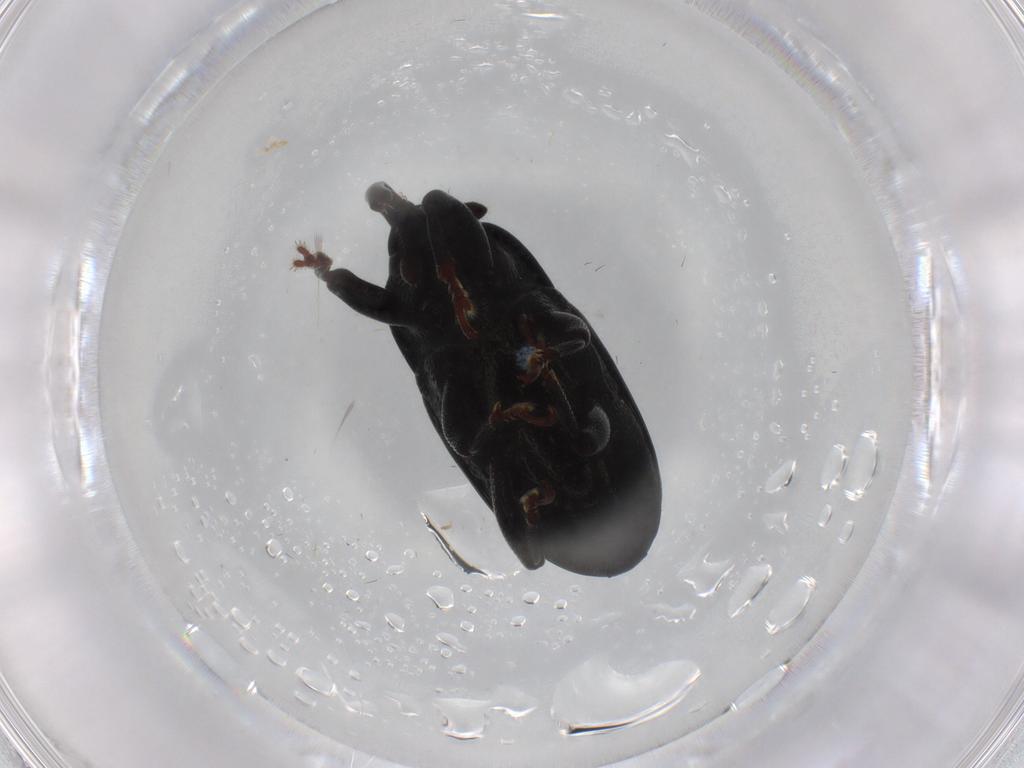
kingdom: Animalia
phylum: Arthropoda
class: Insecta
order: Coleoptera
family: Curculionidae
